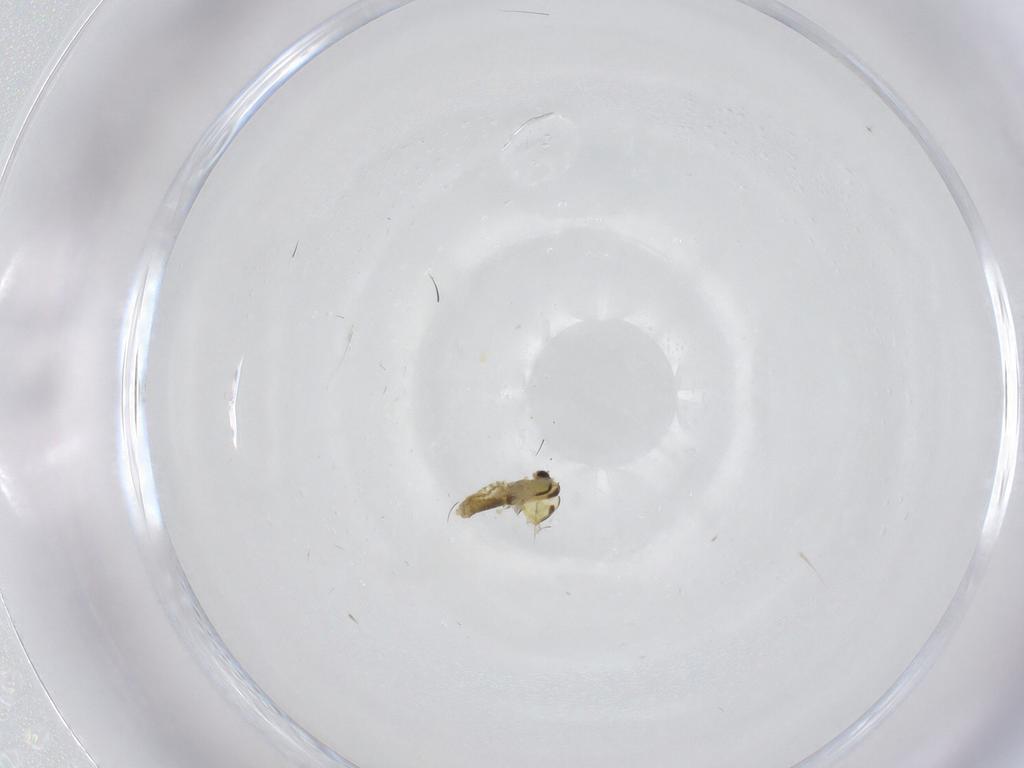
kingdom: Animalia
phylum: Arthropoda
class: Insecta
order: Diptera
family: Chironomidae
